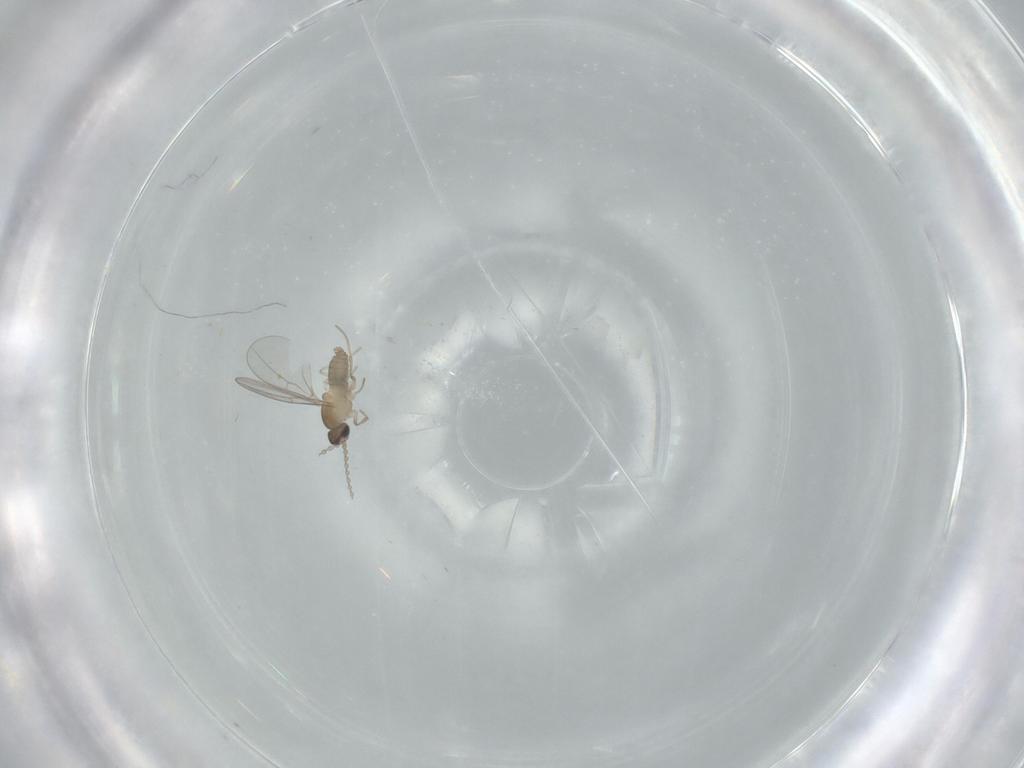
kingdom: Animalia
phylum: Arthropoda
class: Insecta
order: Diptera
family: Cecidomyiidae
